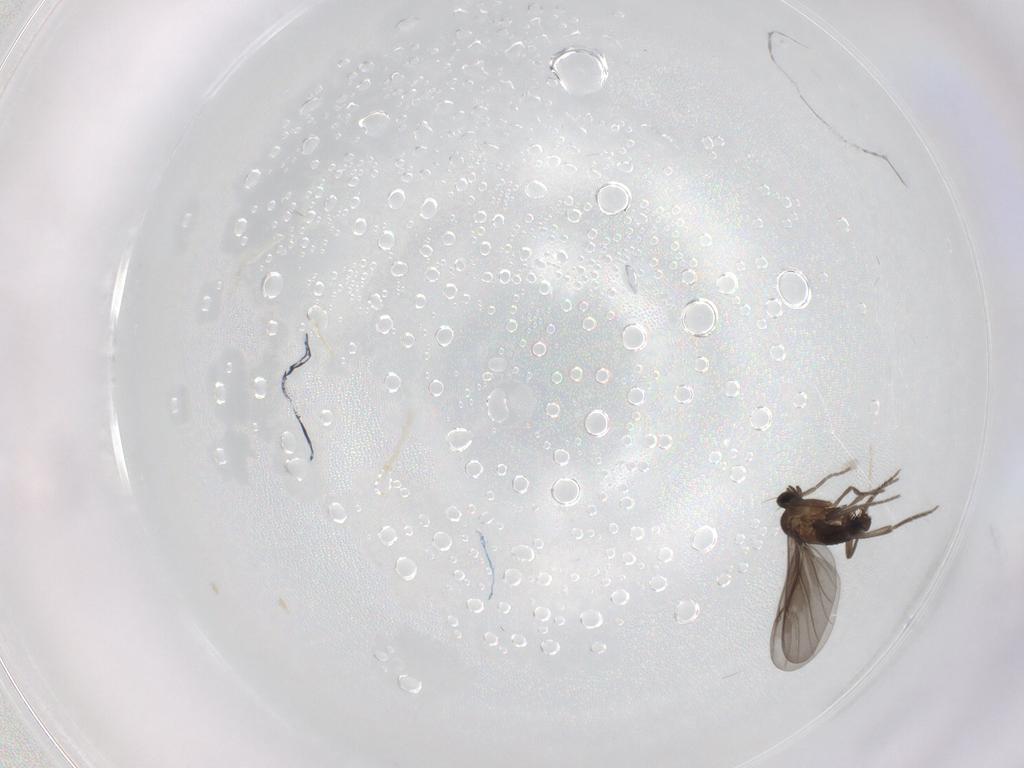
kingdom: Animalia
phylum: Arthropoda
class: Insecta
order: Diptera
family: Phoridae
